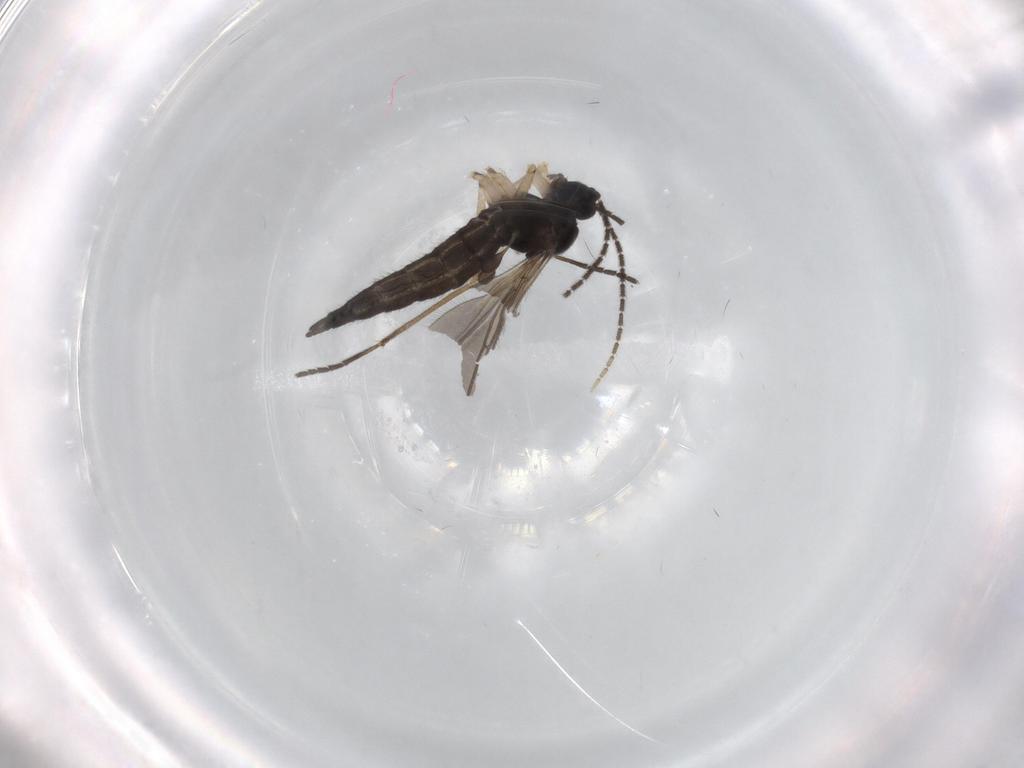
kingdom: Animalia
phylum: Arthropoda
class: Insecta
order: Diptera
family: Sciaridae
